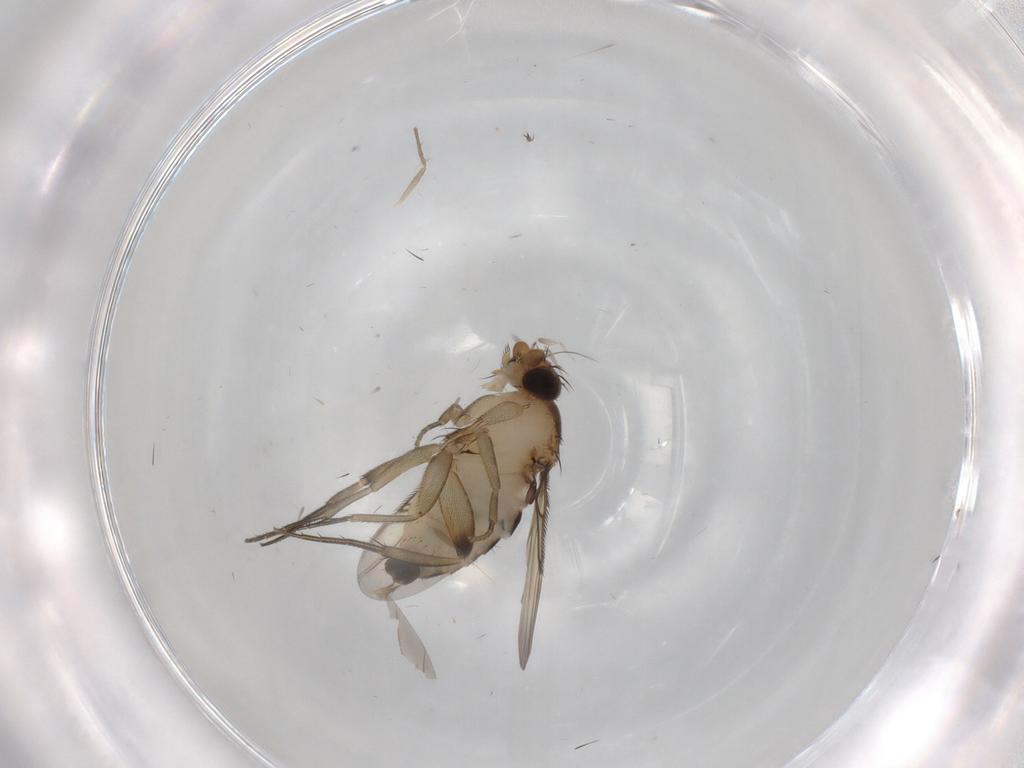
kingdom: Animalia
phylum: Arthropoda
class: Insecta
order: Diptera
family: Phoridae
